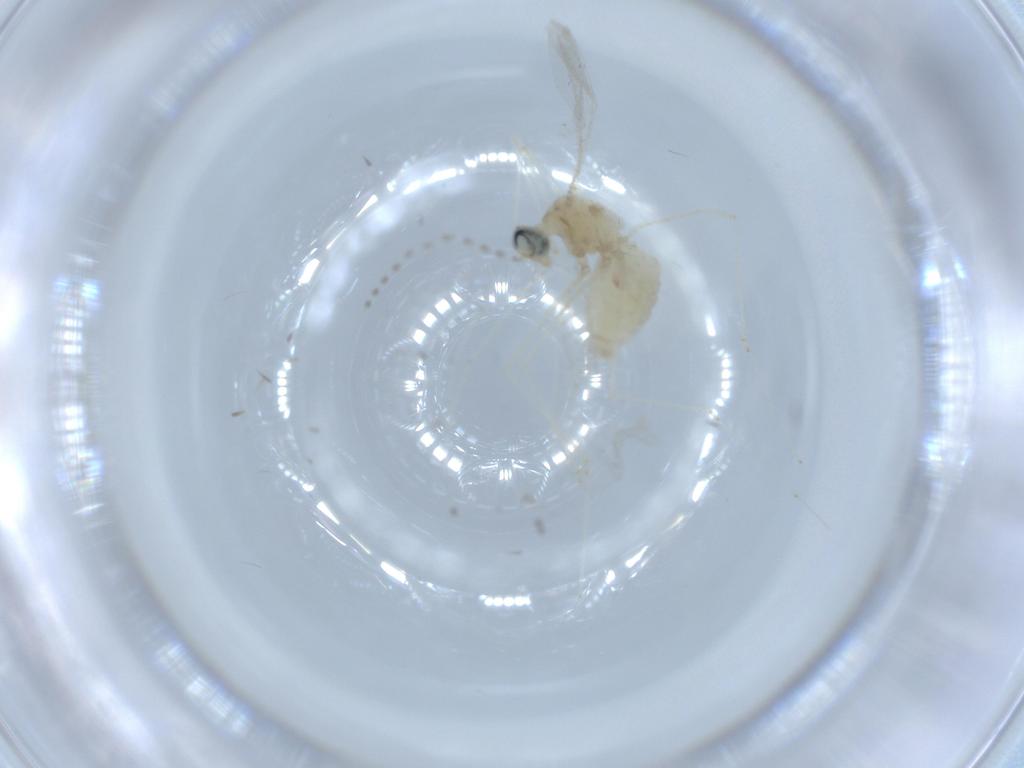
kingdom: Animalia
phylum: Arthropoda
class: Insecta
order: Diptera
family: Cecidomyiidae
